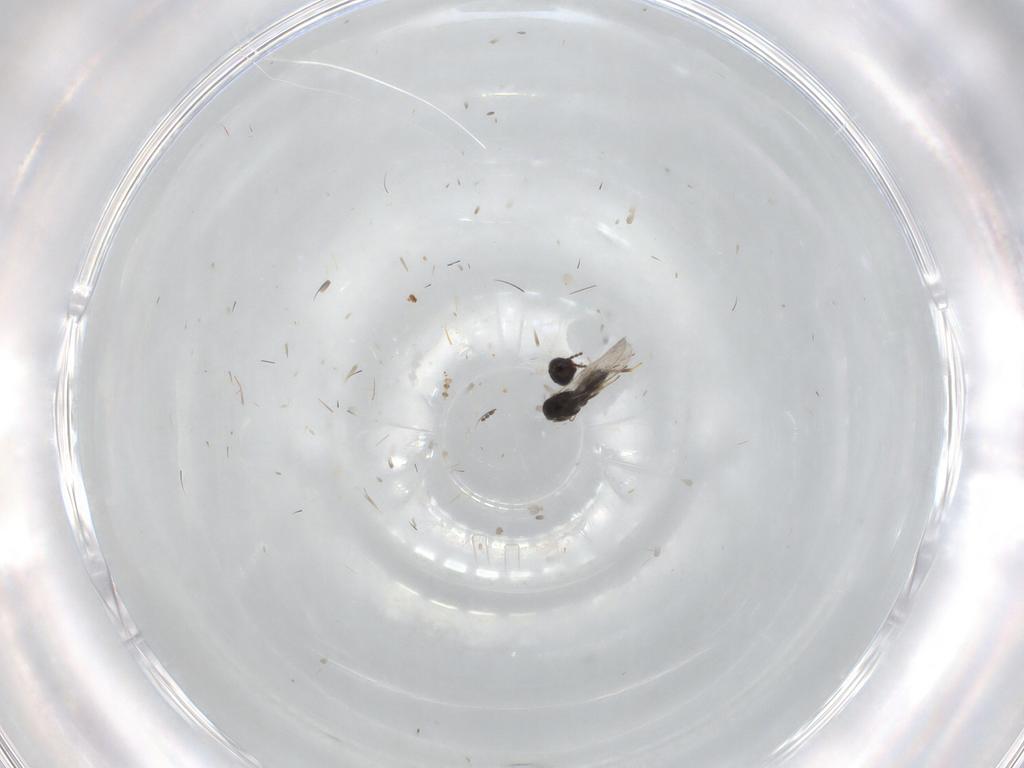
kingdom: Animalia
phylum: Arthropoda
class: Insecta
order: Hymenoptera
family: Scelionidae
